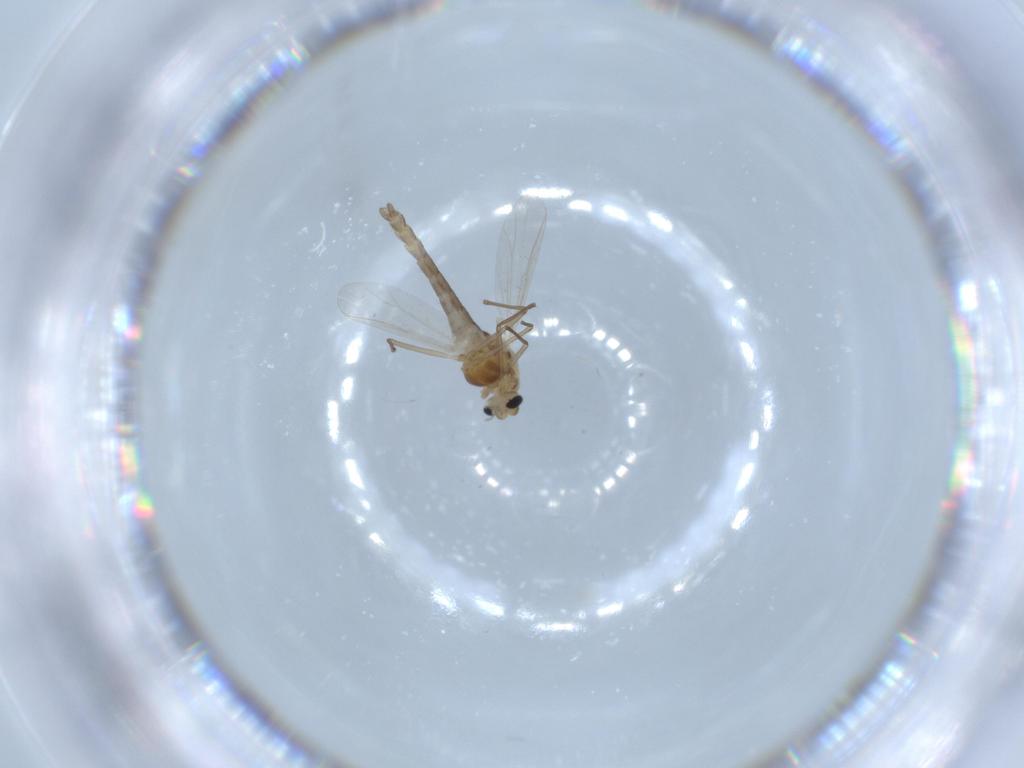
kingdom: Animalia
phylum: Arthropoda
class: Insecta
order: Diptera
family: Chironomidae
